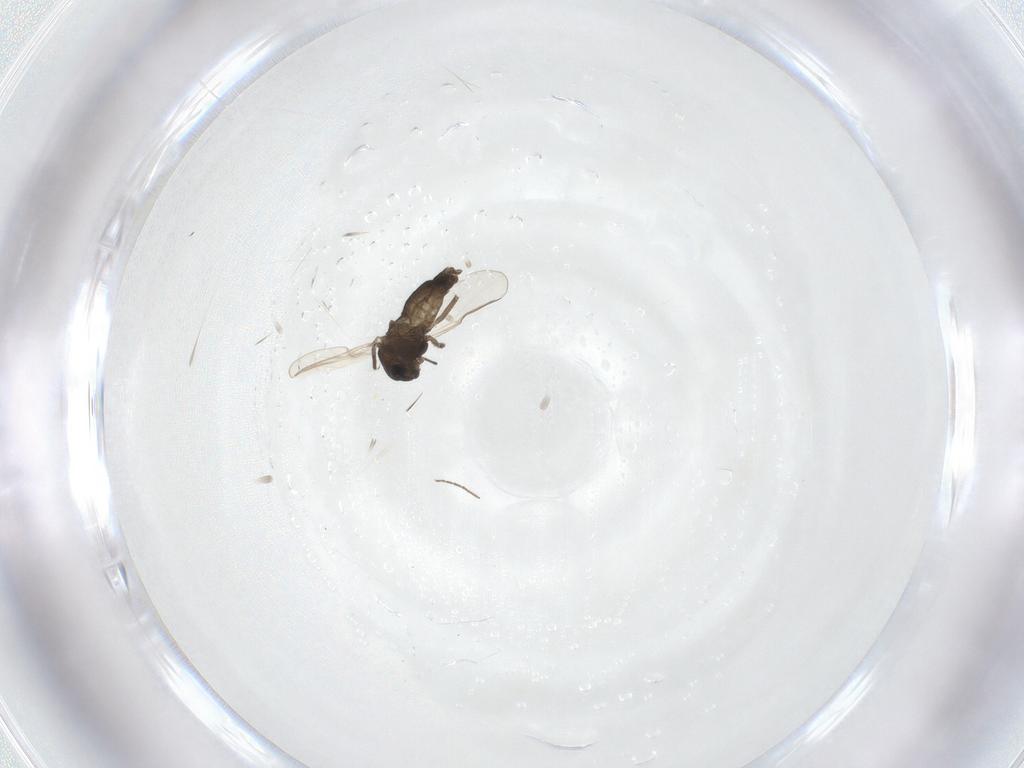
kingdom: Animalia
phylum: Arthropoda
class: Insecta
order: Diptera
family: Chironomidae
